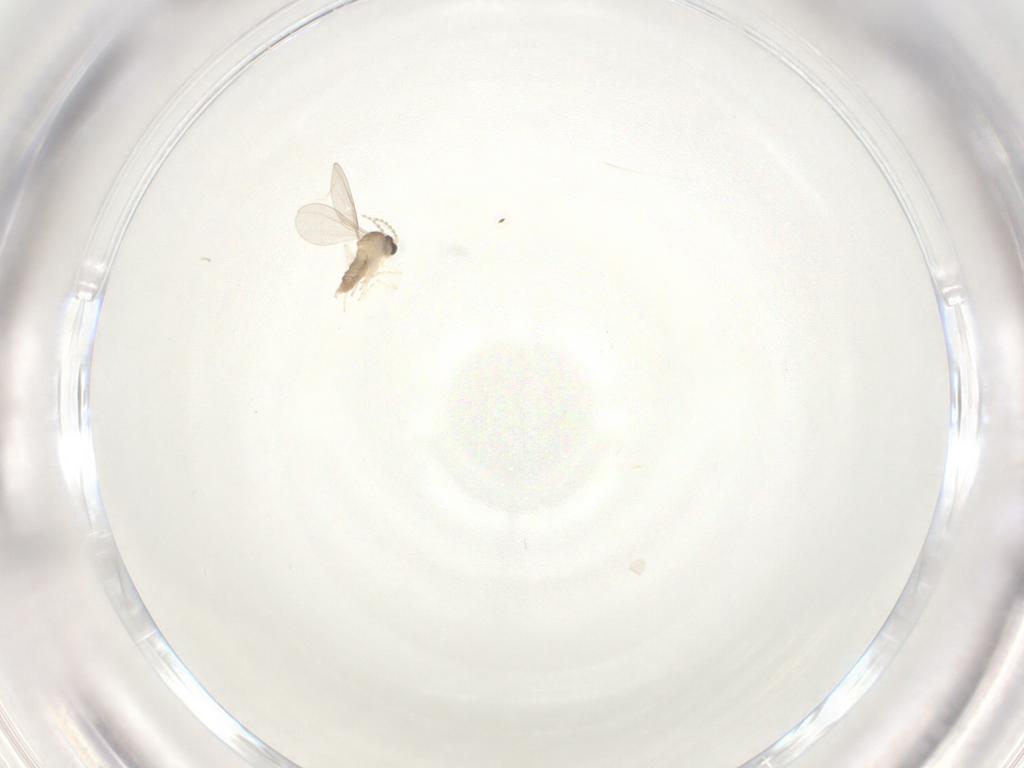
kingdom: Animalia
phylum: Arthropoda
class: Insecta
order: Diptera
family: Cecidomyiidae
